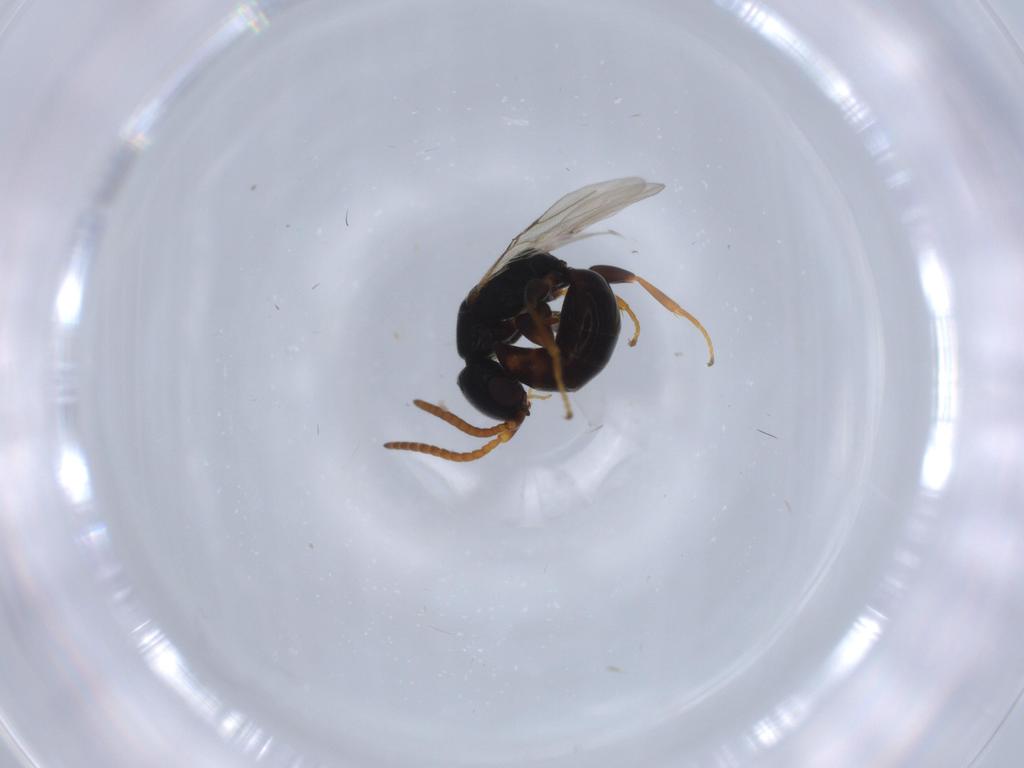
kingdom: Animalia
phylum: Arthropoda
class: Insecta
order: Hymenoptera
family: Bethylidae
